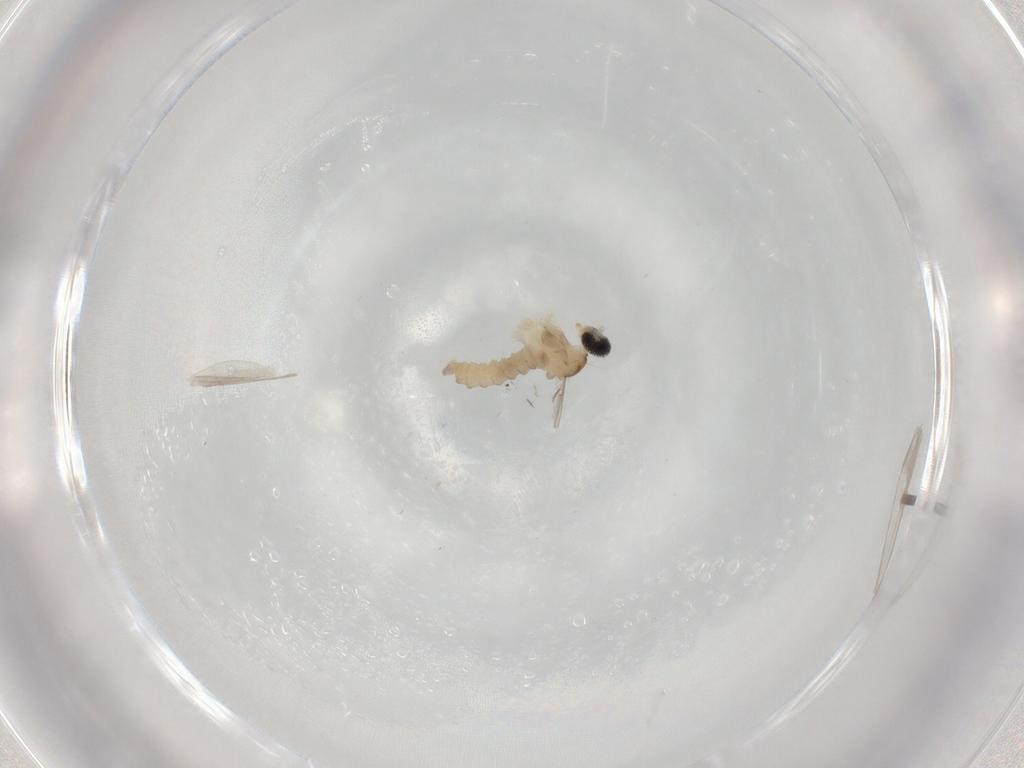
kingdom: Animalia
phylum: Arthropoda
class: Insecta
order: Diptera
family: Cecidomyiidae
